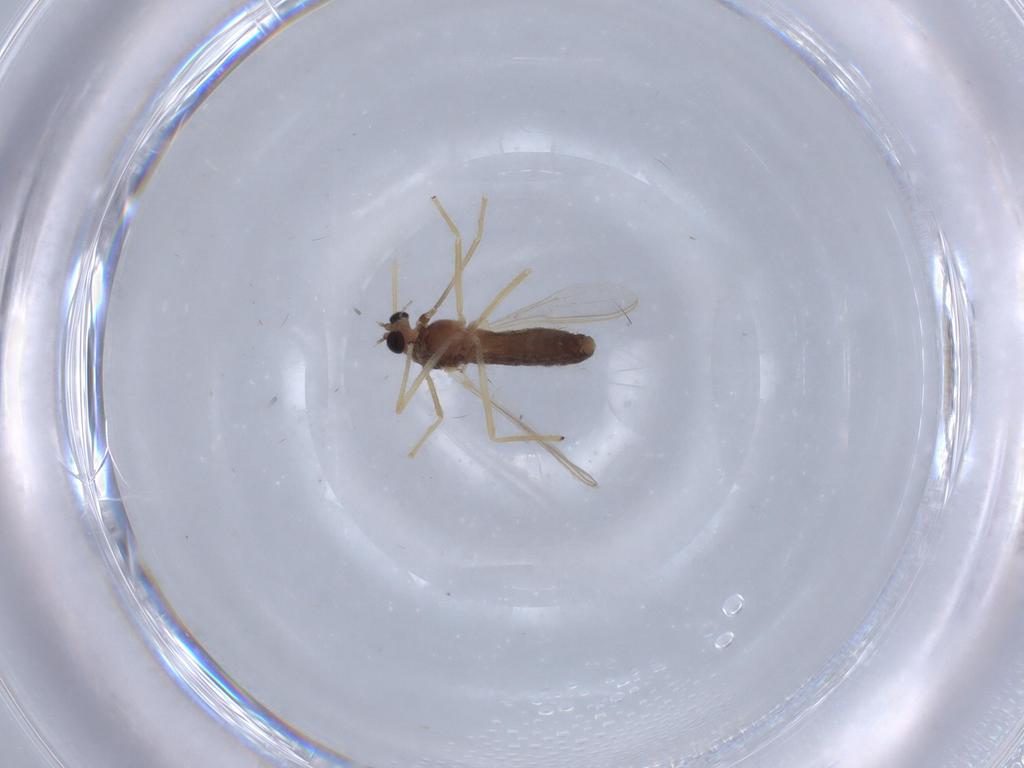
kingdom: Animalia
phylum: Arthropoda
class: Insecta
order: Diptera
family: Chironomidae
